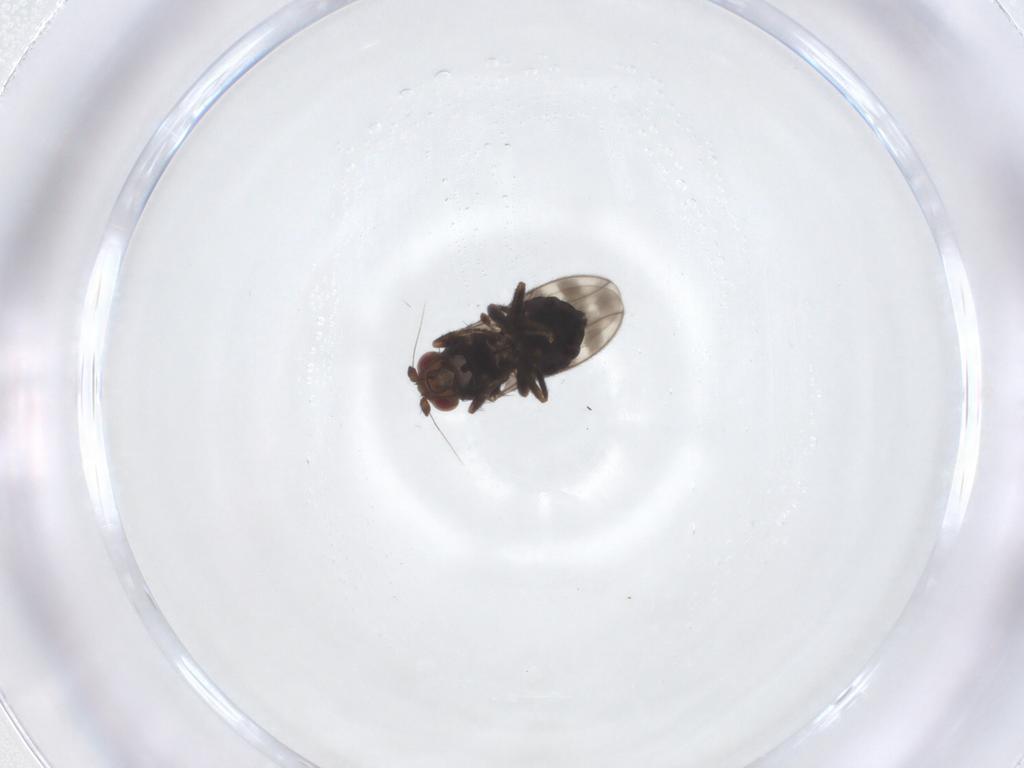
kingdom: Animalia
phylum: Arthropoda
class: Insecta
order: Diptera
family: Sphaeroceridae
